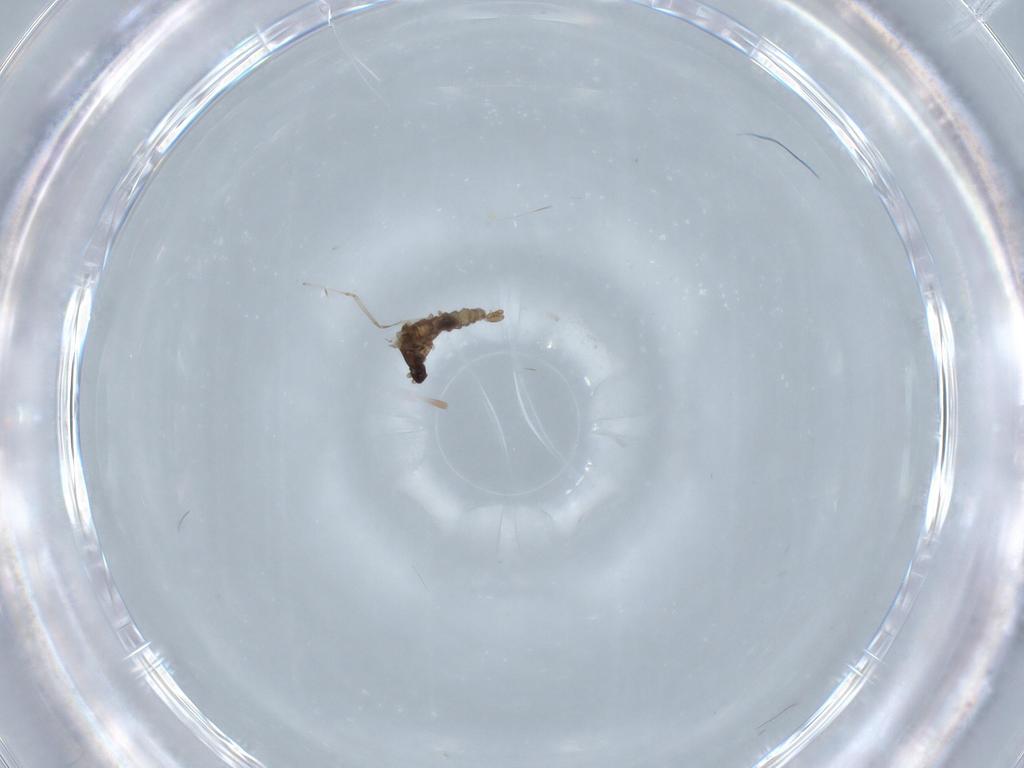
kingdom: Animalia
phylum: Arthropoda
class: Insecta
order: Diptera
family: Cecidomyiidae
